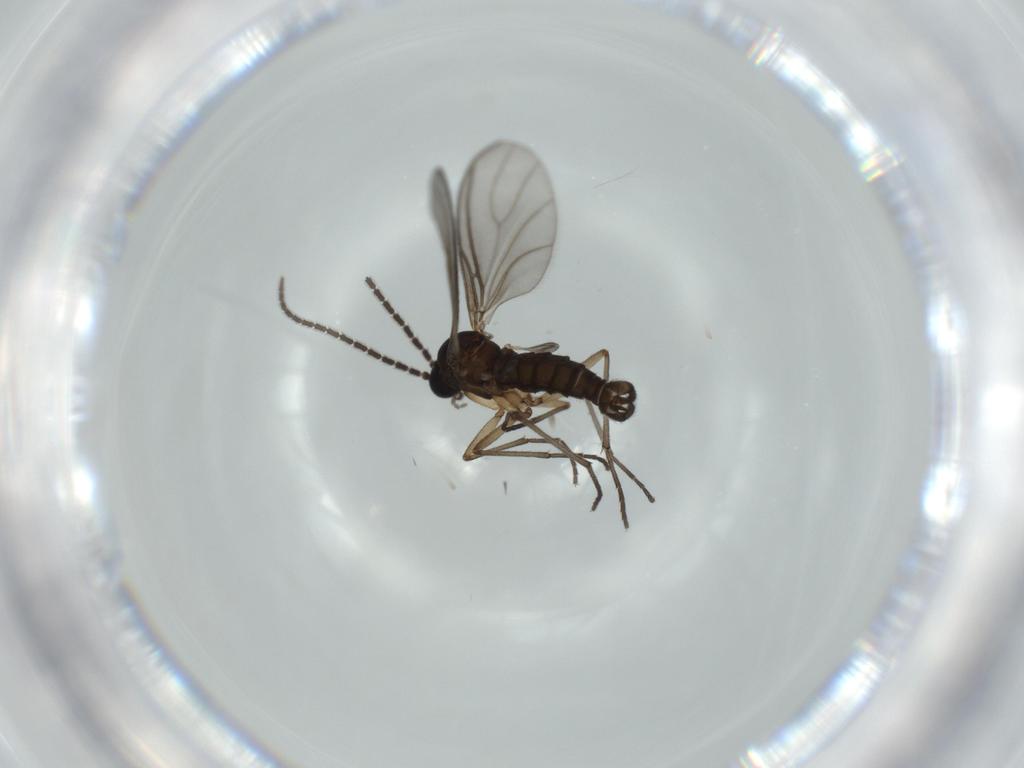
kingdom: Animalia
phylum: Arthropoda
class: Insecta
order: Diptera
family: Sciaridae
